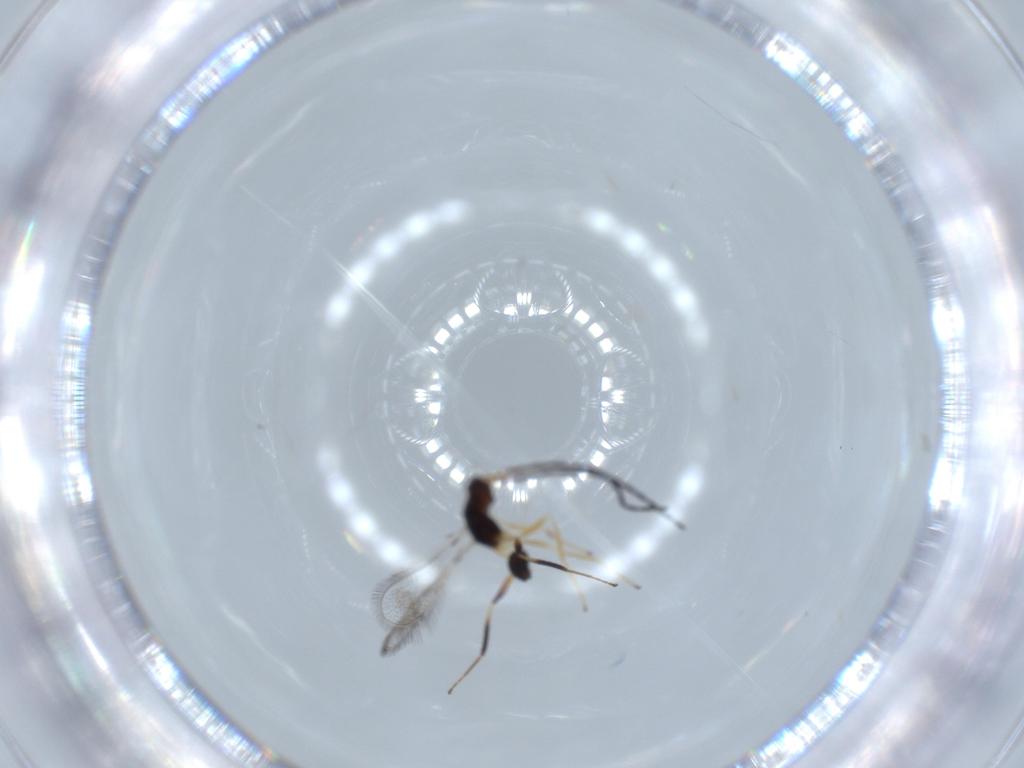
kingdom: Animalia
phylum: Arthropoda
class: Insecta
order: Hymenoptera
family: Mymaridae
